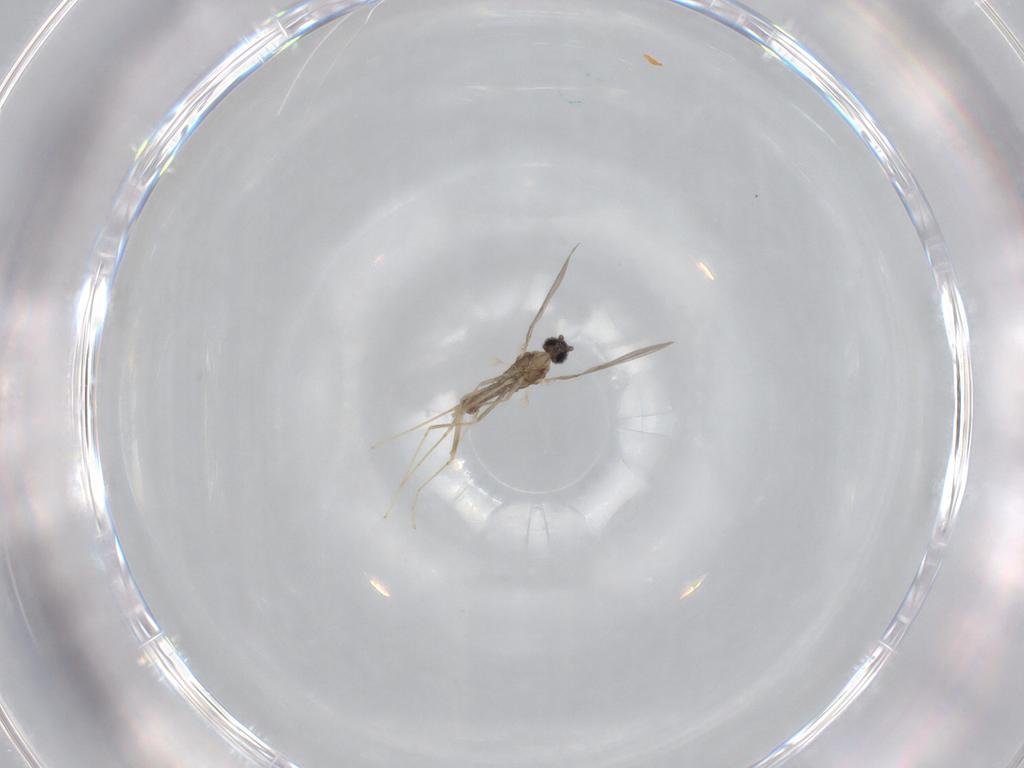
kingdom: Animalia
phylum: Arthropoda
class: Insecta
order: Diptera
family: Cecidomyiidae
